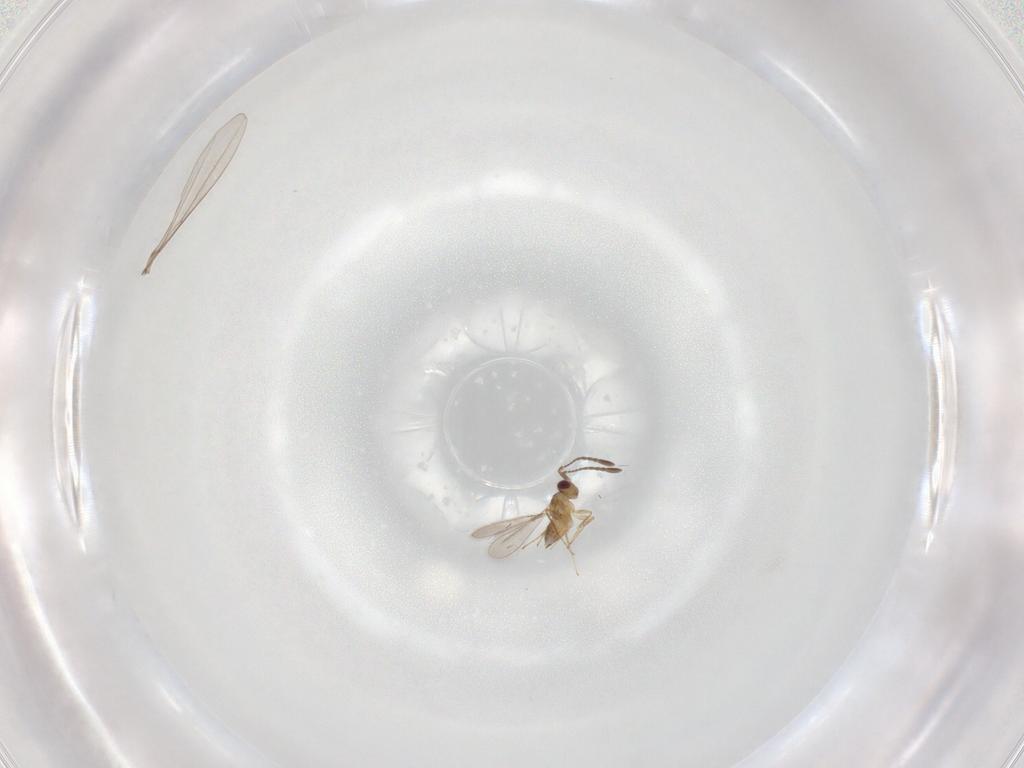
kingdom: Animalia
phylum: Arthropoda
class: Insecta
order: Hymenoptera
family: Mymaridae
